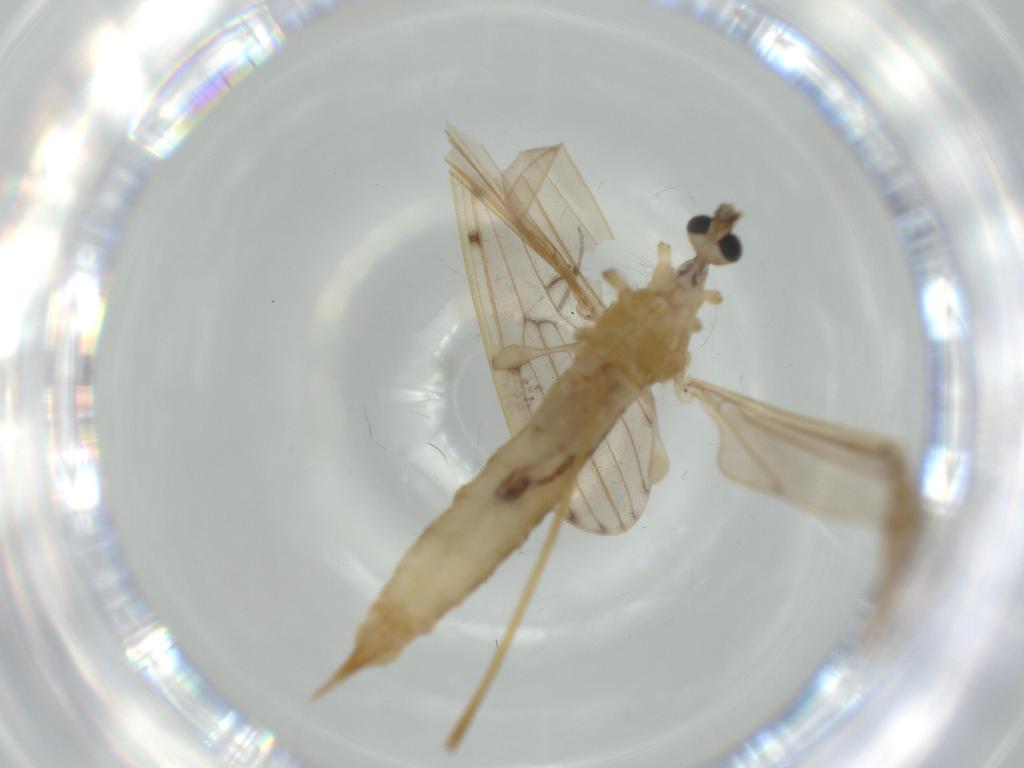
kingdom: Animalia
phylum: Arthropoda
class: Insecta
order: Diptera
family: Limoniidae
